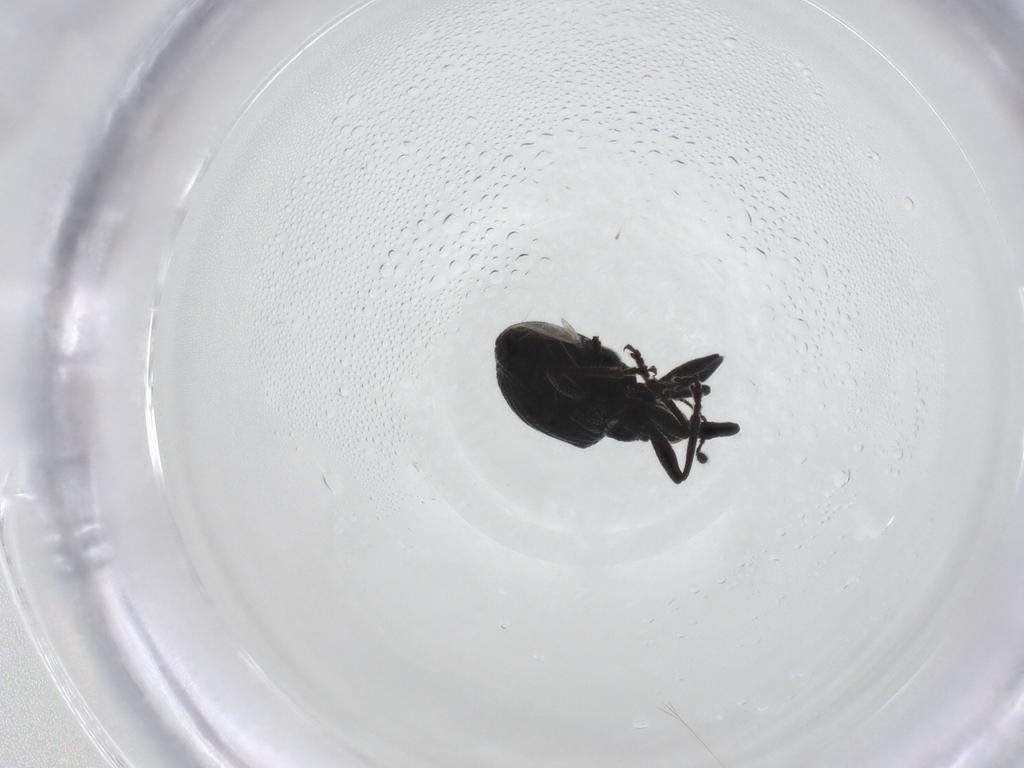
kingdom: Animalia
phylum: Arthropoda
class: Insecta
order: Coleoptera
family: Brentidae
